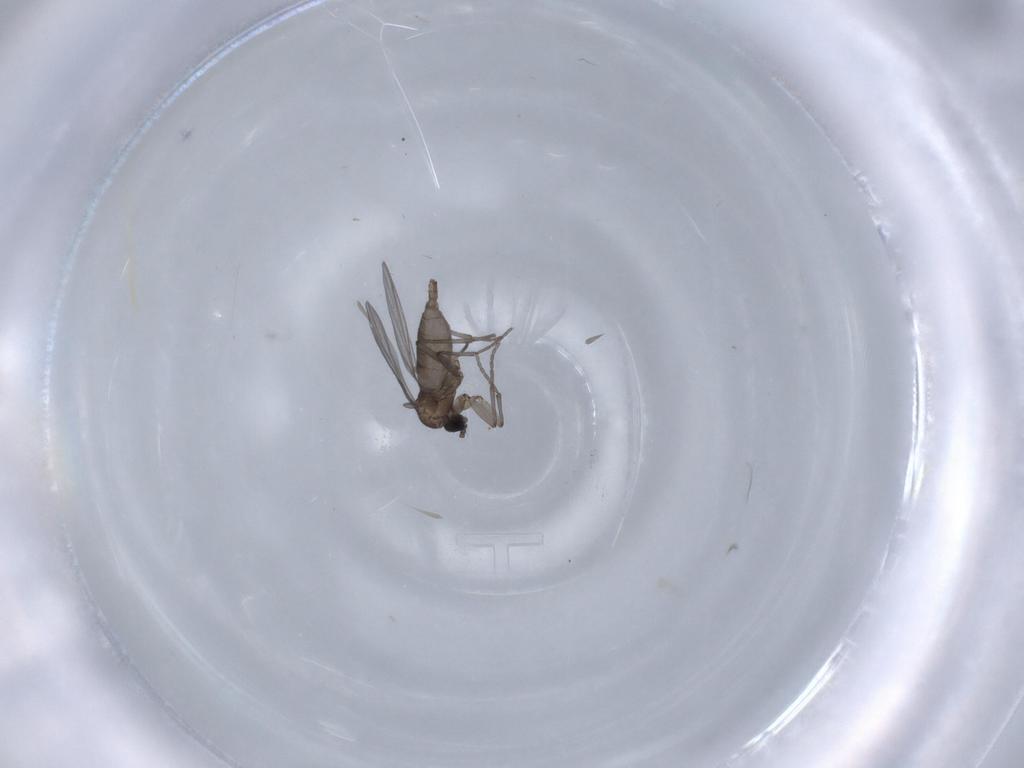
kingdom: Animalia
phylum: Arthropoda
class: Insecta
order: Diptera
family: Sciaridae
